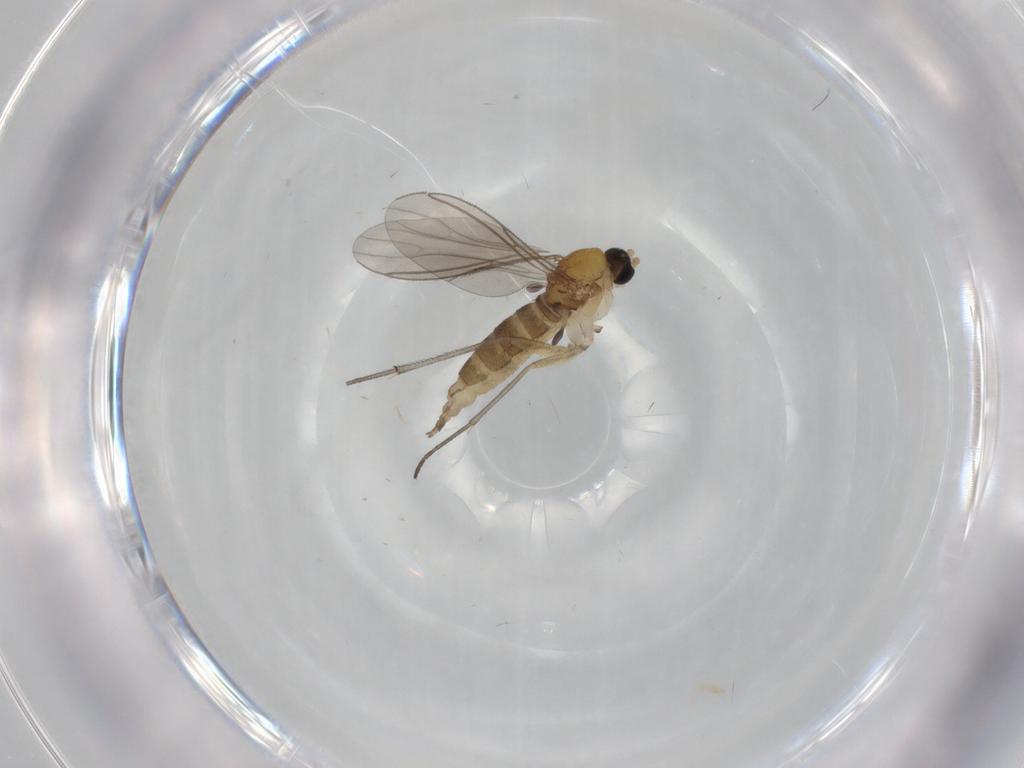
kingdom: Animalia
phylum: Arthropoda
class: Insecta
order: Diptera
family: Sciaridae
